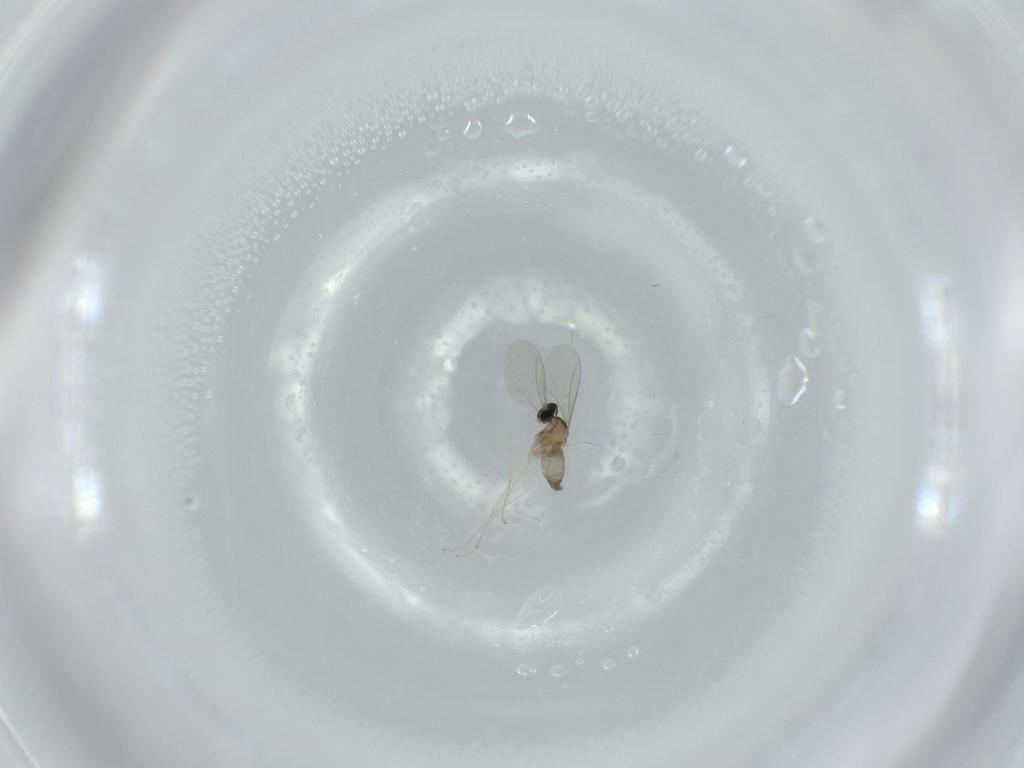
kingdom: Animalia
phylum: Arthropoda
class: Insecta
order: Diptera
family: Cecidomyiidae
